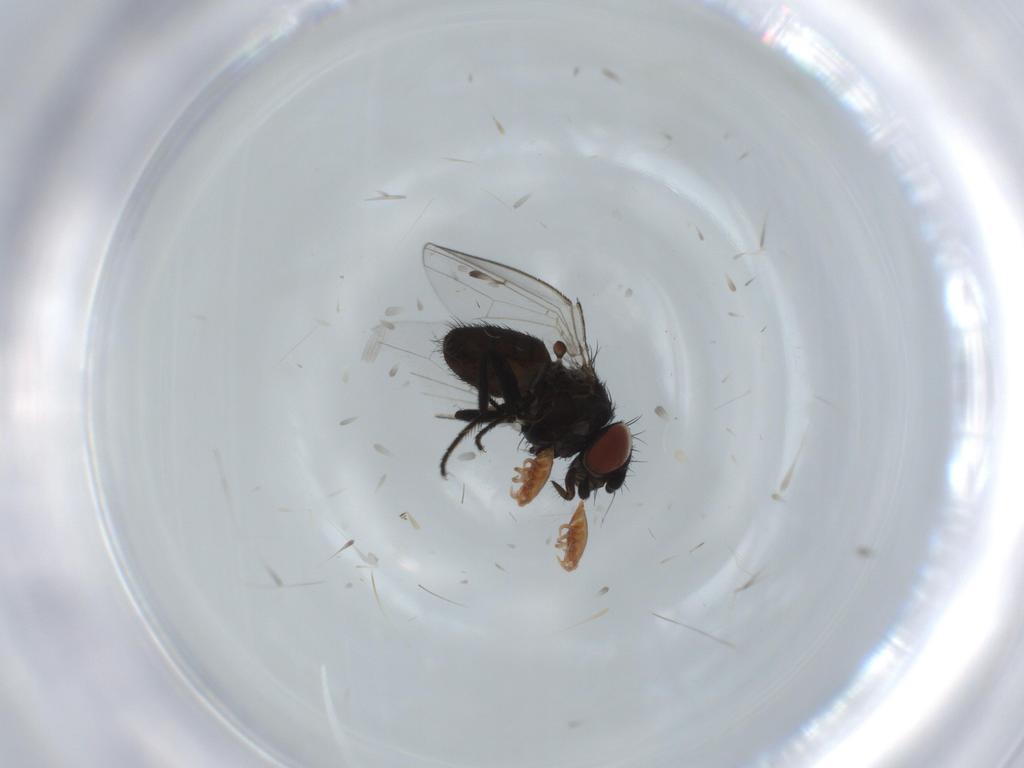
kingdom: Animalia
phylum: Arthropoda
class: Insecta
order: Diptera
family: Milichiidae
